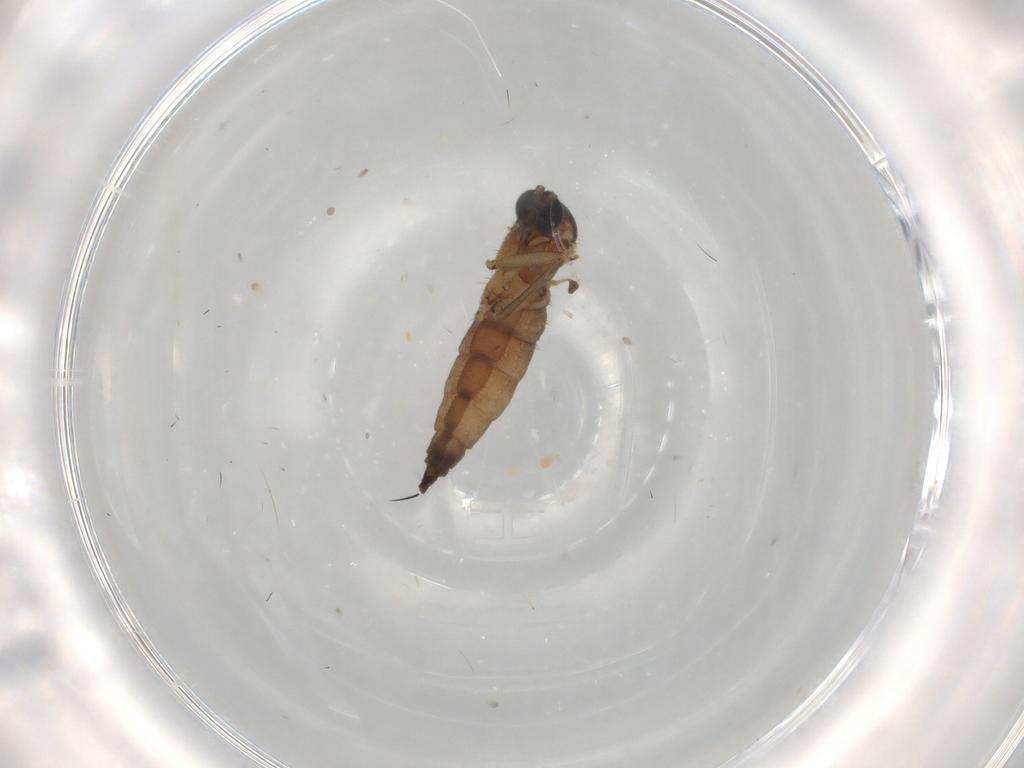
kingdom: Animalia
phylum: Arthropoda
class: Insecta
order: Diptera
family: Sciaridae
